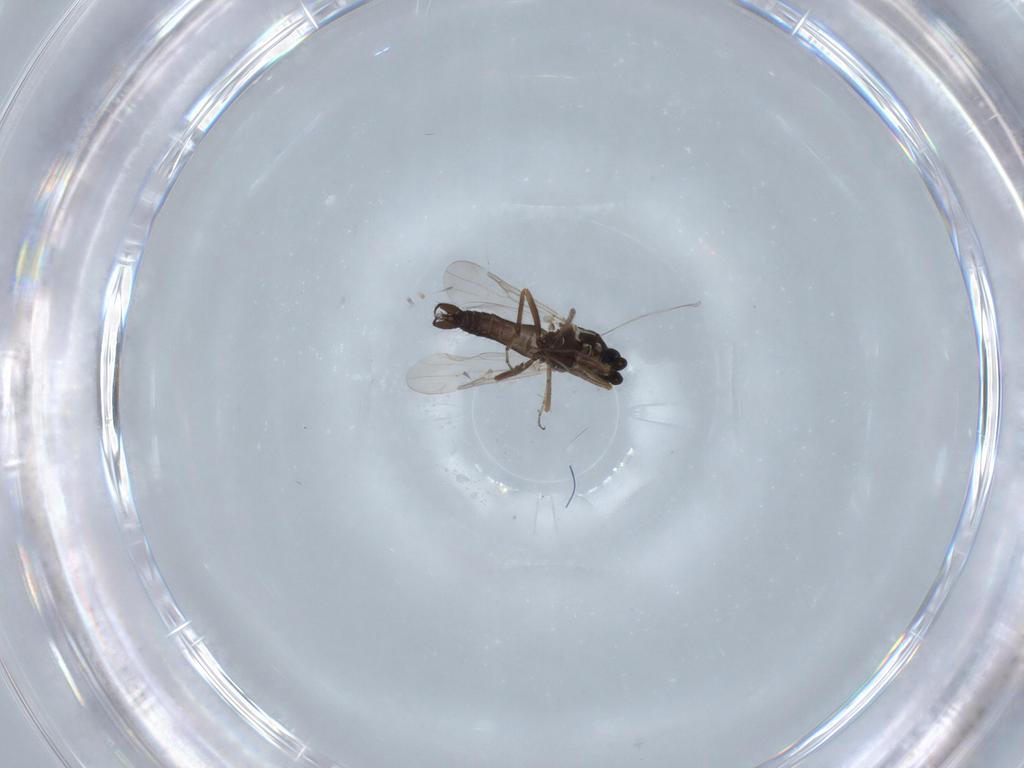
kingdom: Animalia
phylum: Arthropoda
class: Insecta
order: Diptera
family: Ceratopogonidae
